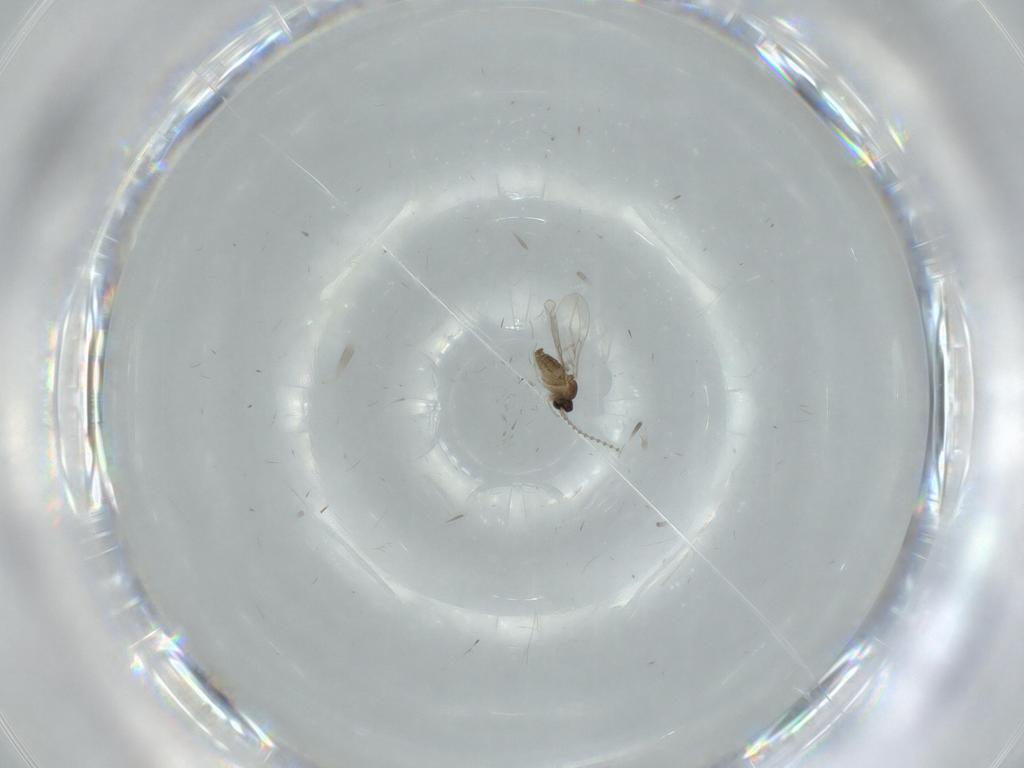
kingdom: Animalia
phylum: Arthropoda
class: Insecta
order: Diptera
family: Cecidomyiidae
